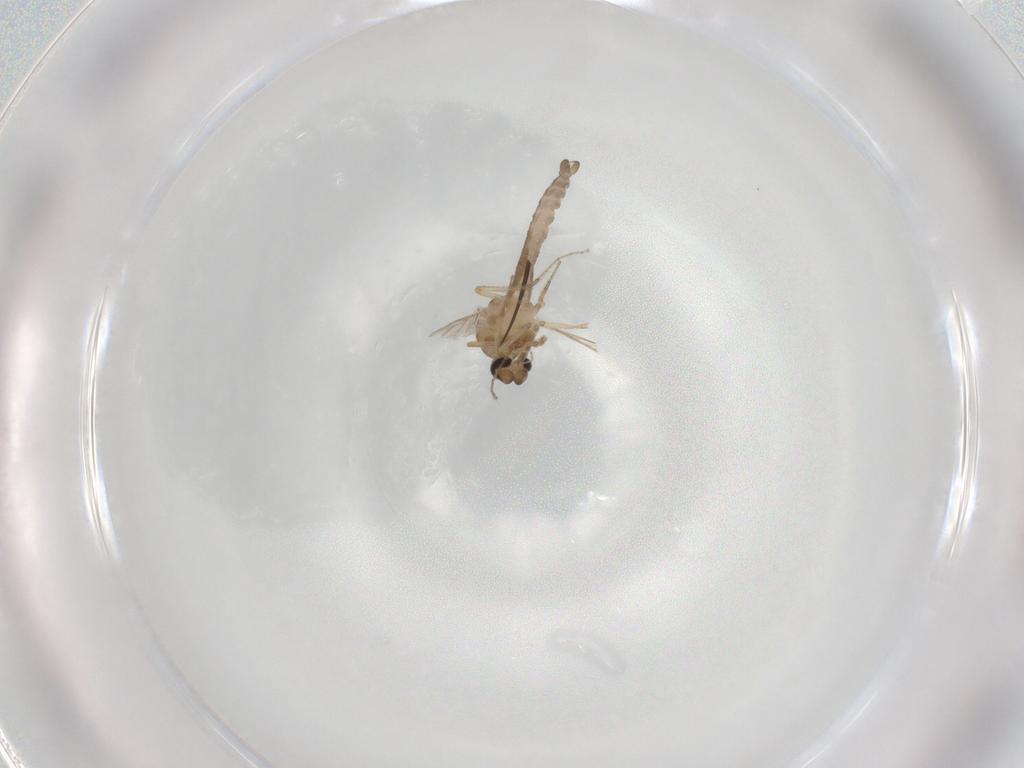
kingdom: Animalia
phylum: Arthropoda
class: Insecta
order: Diptera
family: Ceratopogonidae
